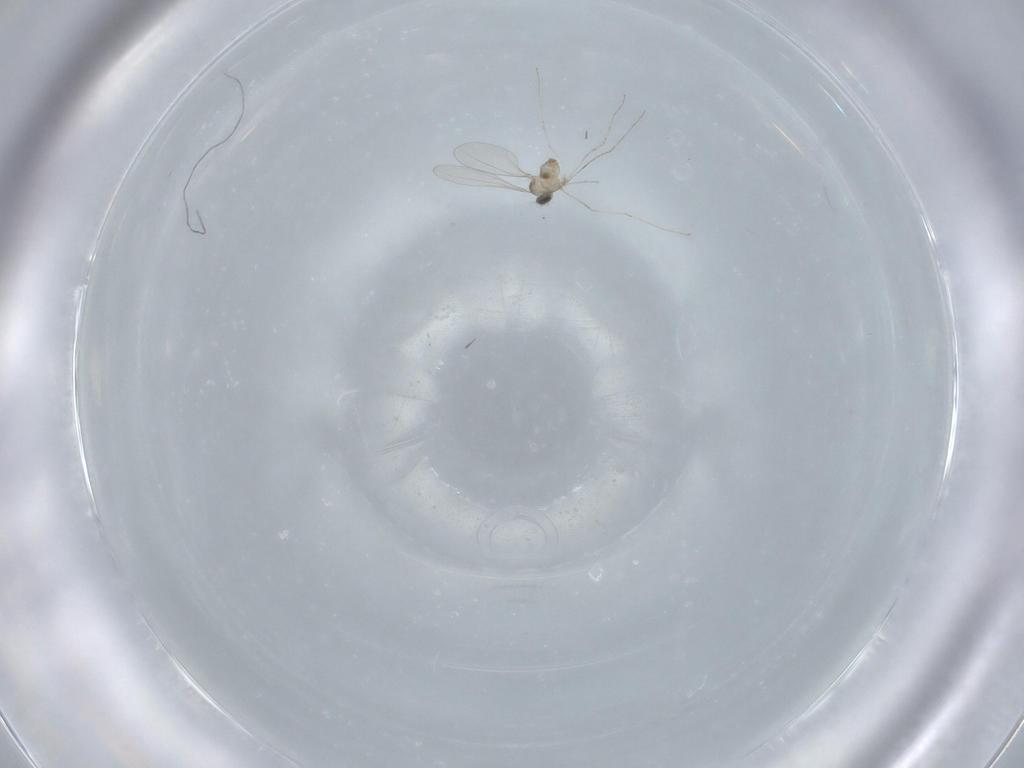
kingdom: Animalia
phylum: Arthropoda
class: Insecta
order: Diptera
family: Cecidomyiidae
